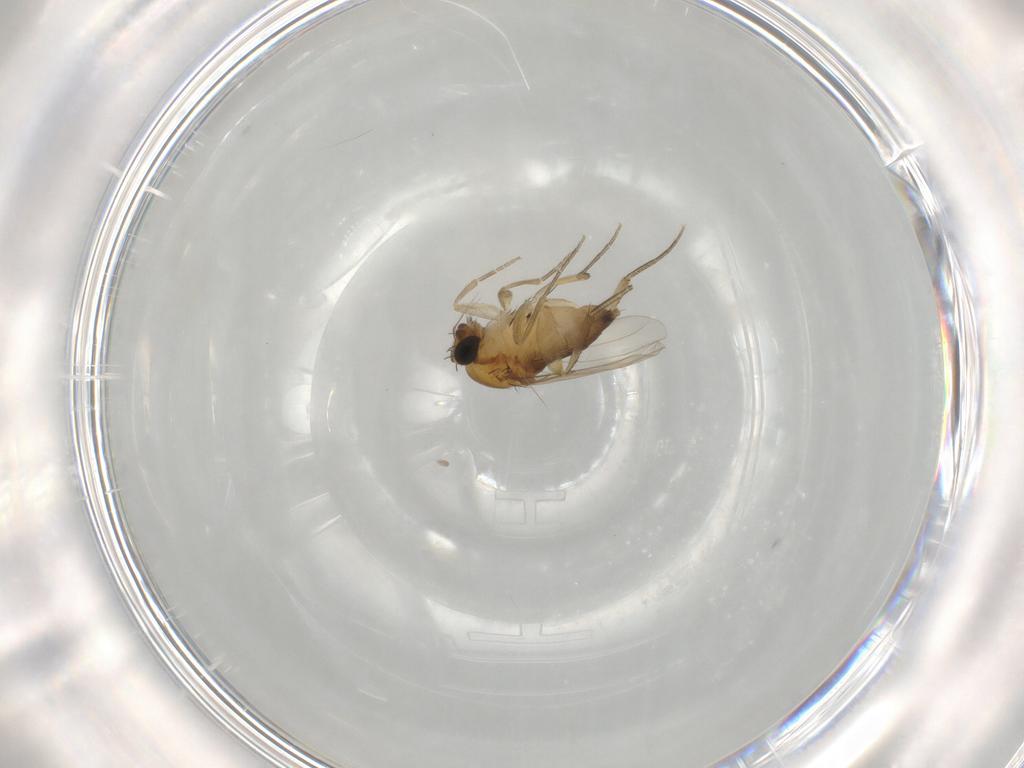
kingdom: Animalia
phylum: Arthropoda
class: Insecta
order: Diptera
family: Phoridae
